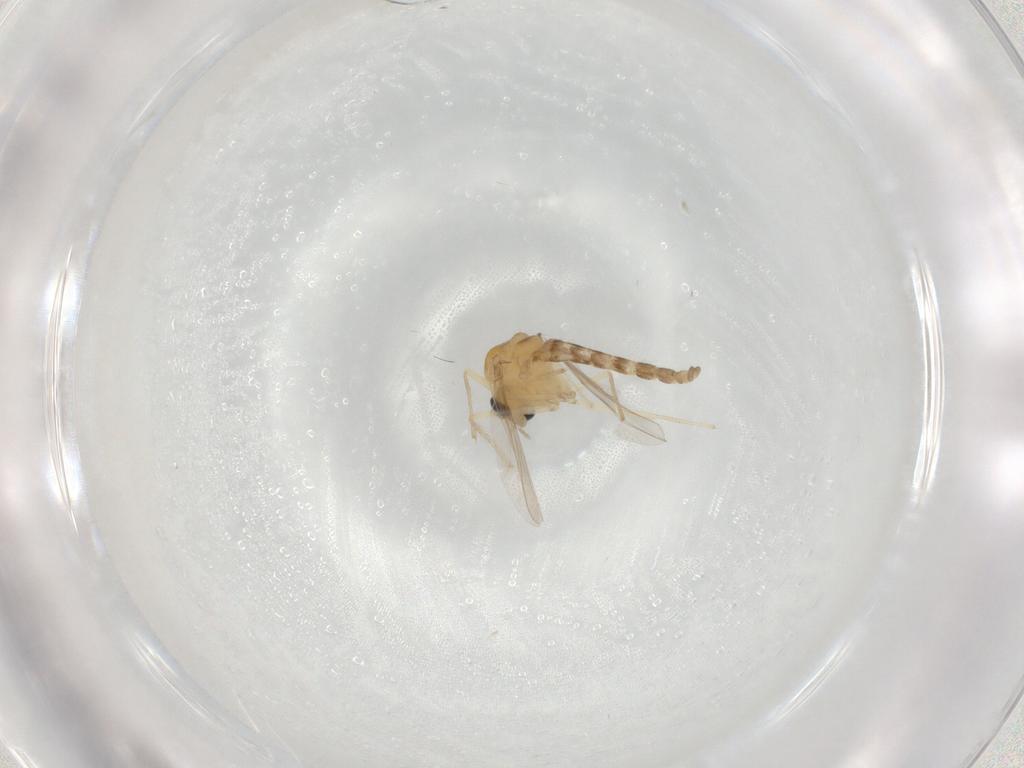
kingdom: Animalia
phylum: Arthropoda
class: Insecta
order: Diptera
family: Chironomidae
